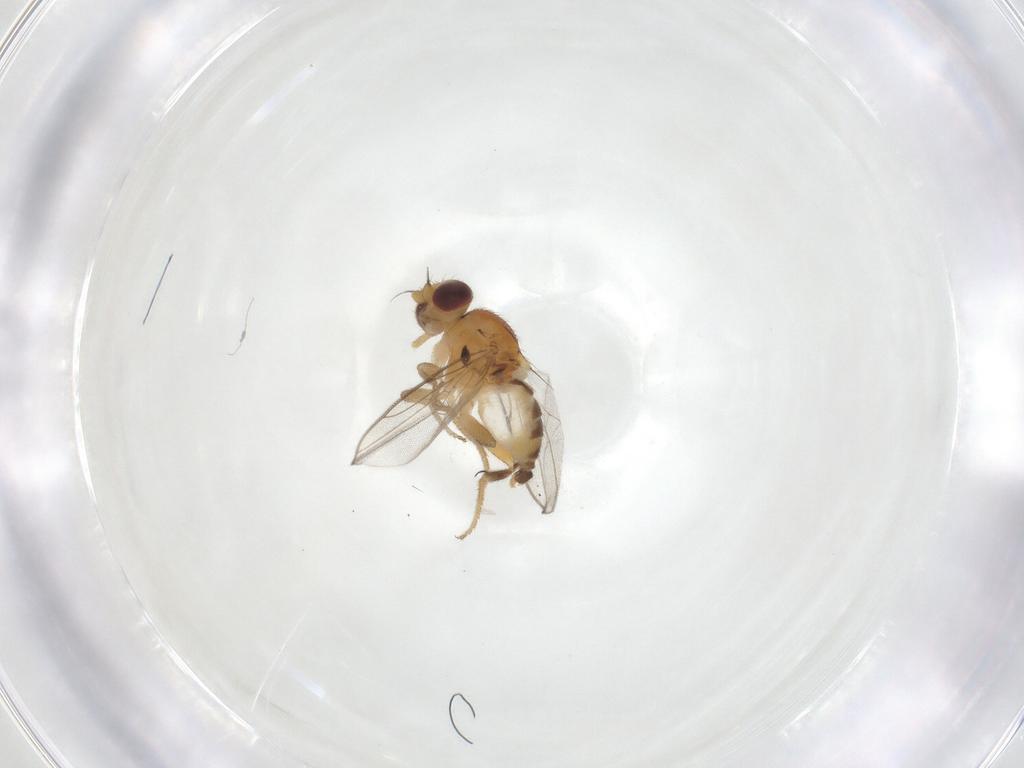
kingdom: Animalia
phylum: Arthropoda
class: Insecta
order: Diptera
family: Chloropidae
